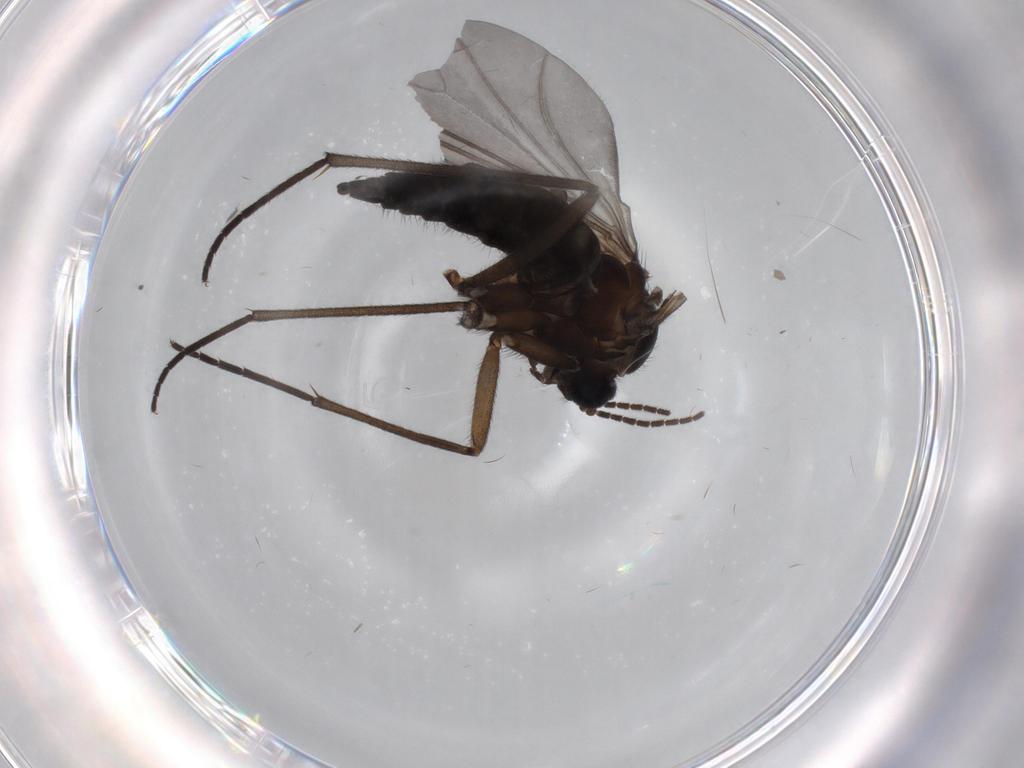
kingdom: Animalia
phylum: Arthropoda
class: Insecta
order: Diptera
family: Sciaridae
